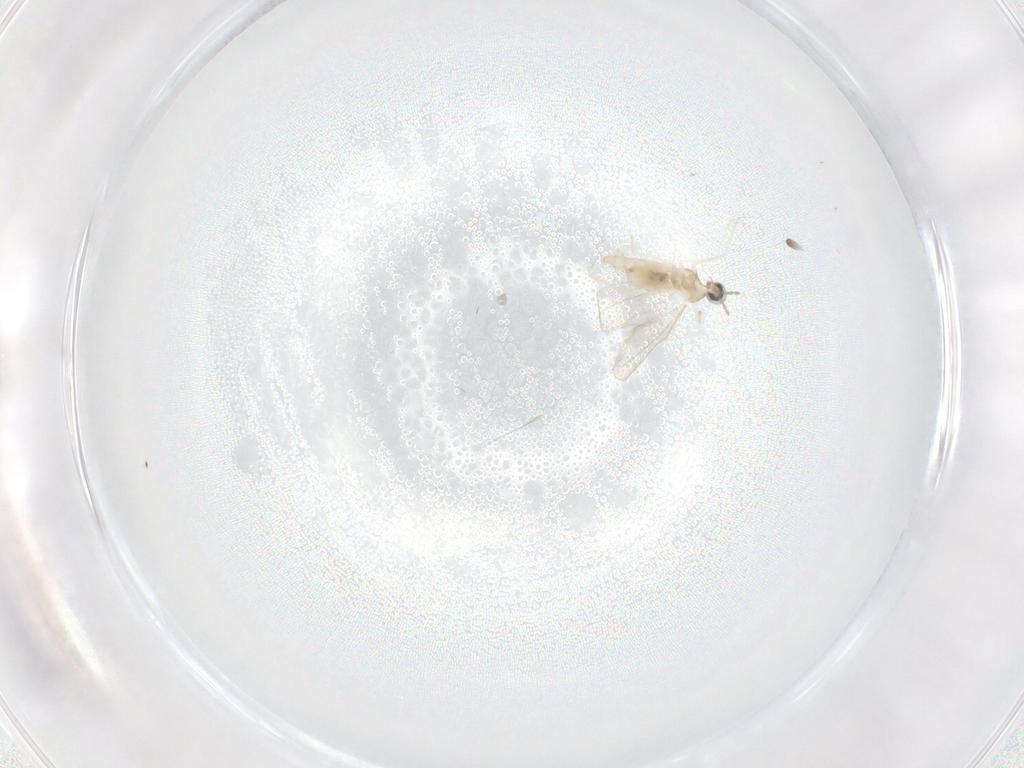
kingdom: Animalia
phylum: Arthropoda
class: Insecta
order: Diptera
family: Cecidomyiidae
